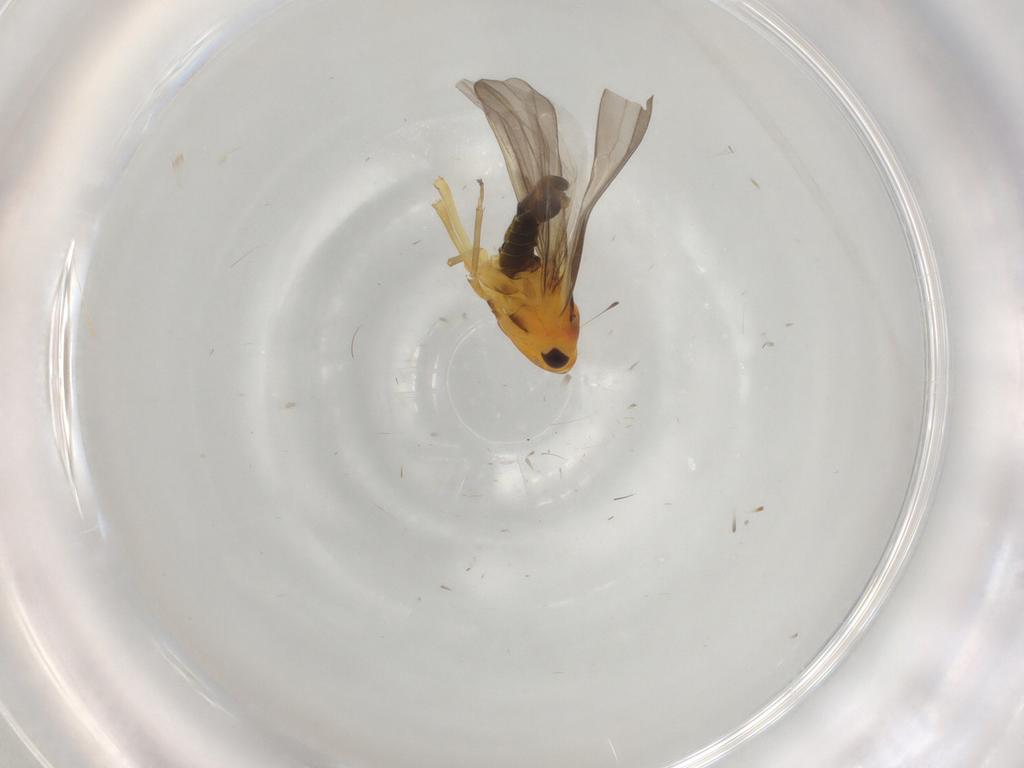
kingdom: Animalia
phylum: Arthropoda
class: Insecta
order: Hemiptera
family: Cicadellidae
